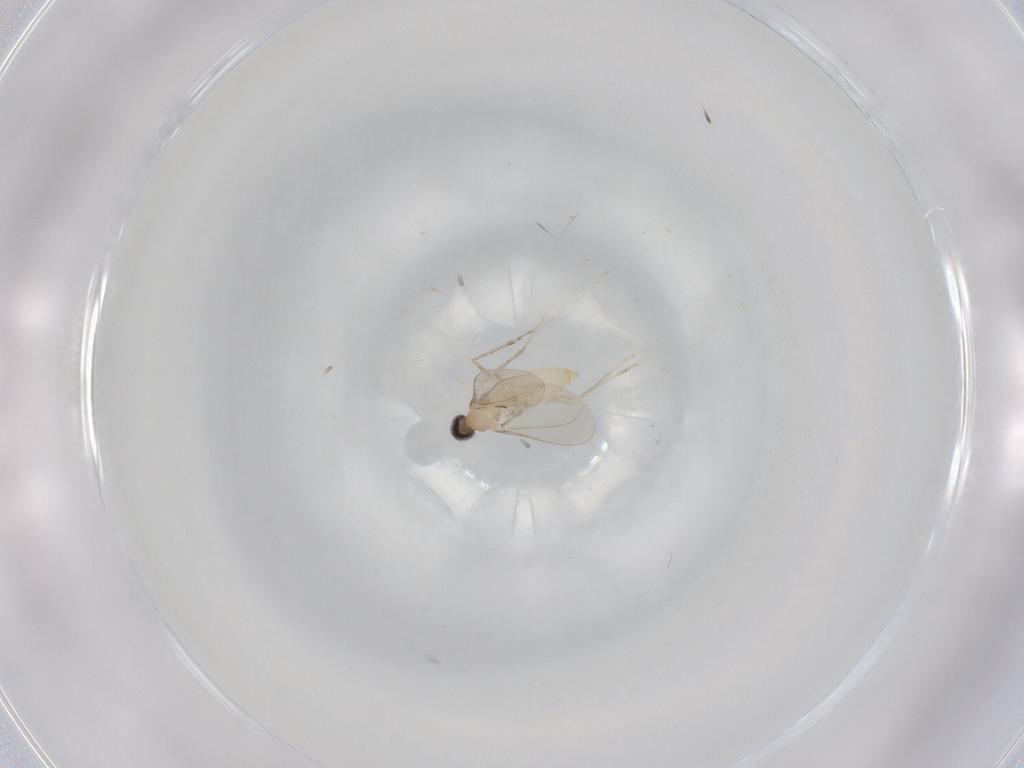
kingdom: Animalia
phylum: Arthropoda
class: Insecta
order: Diptera
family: Cecidomyiidae
